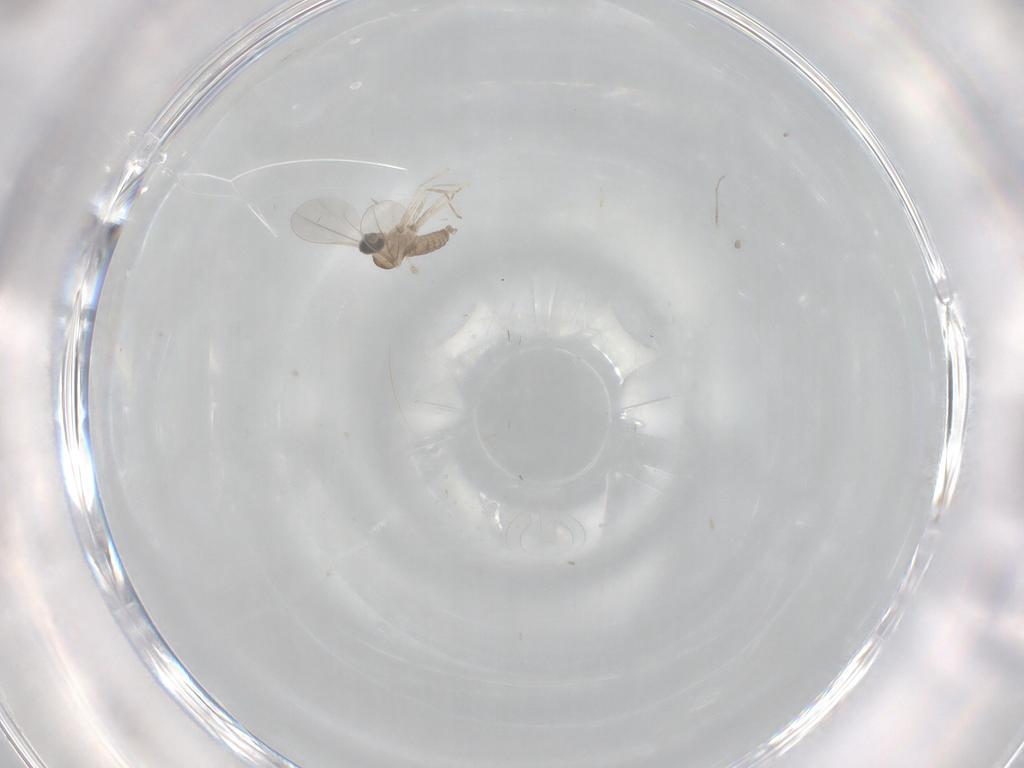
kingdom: Animalia
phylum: Arthropoda
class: Insecta
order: Diptera
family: Cecidomyiidae
